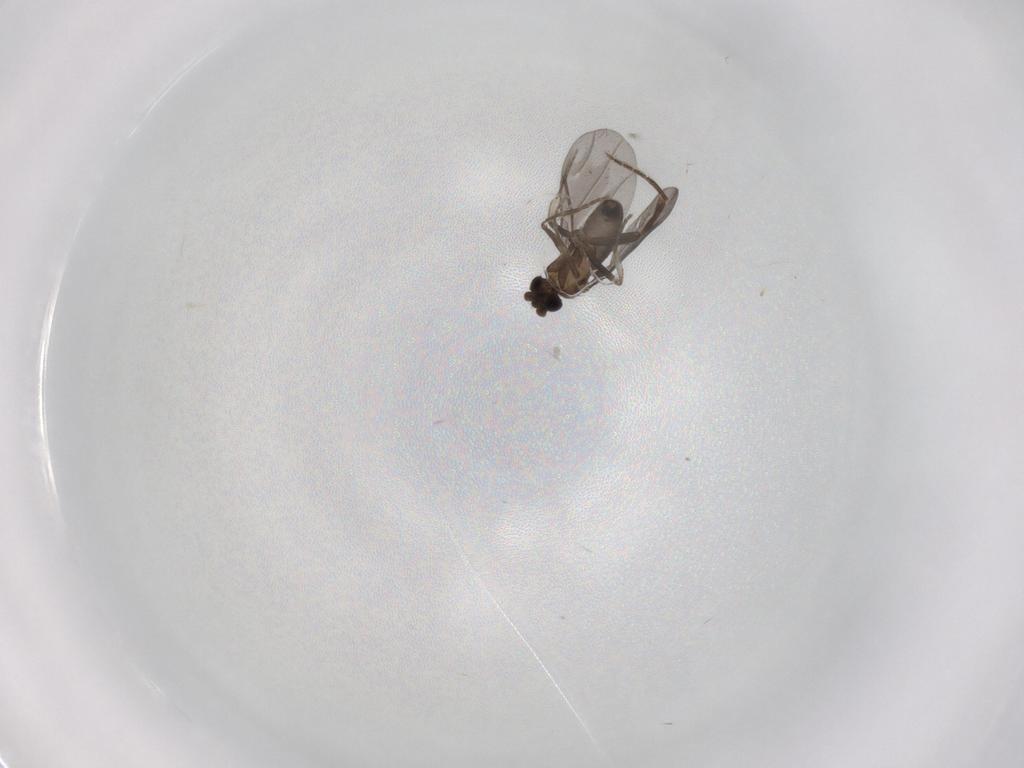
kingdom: Animalia
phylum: Arthropoda
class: Insecta
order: Diptera
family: Phoridae
